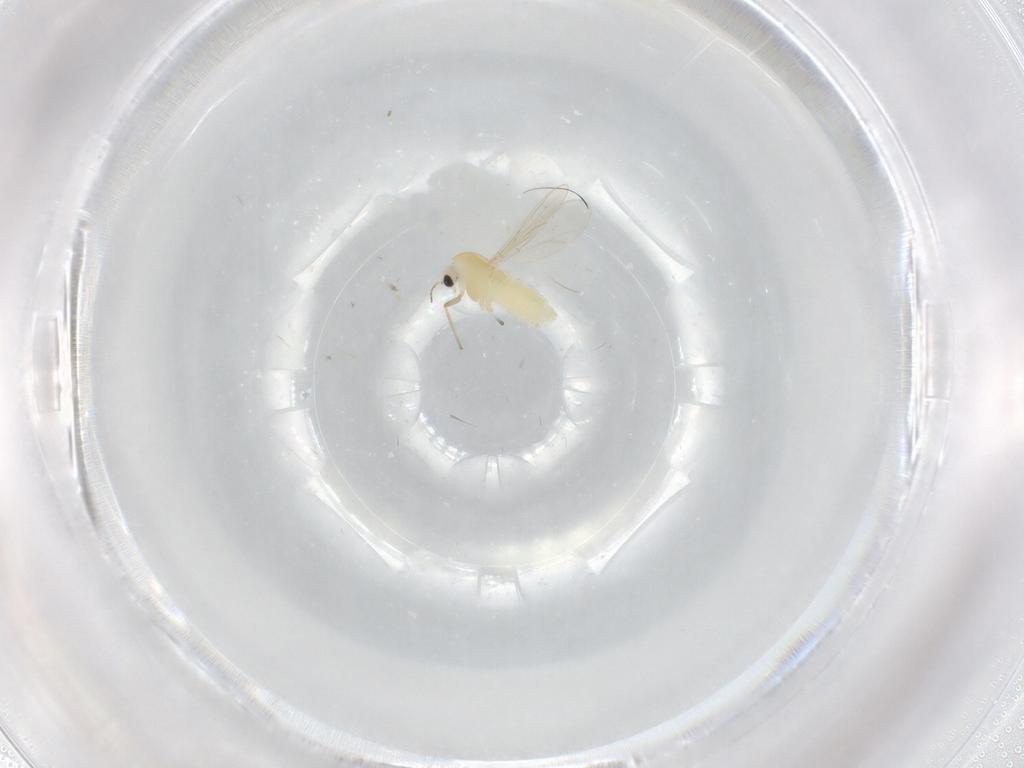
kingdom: Animalia
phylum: Arthropoda
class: Insecta
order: Diptera
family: Chironomidae
